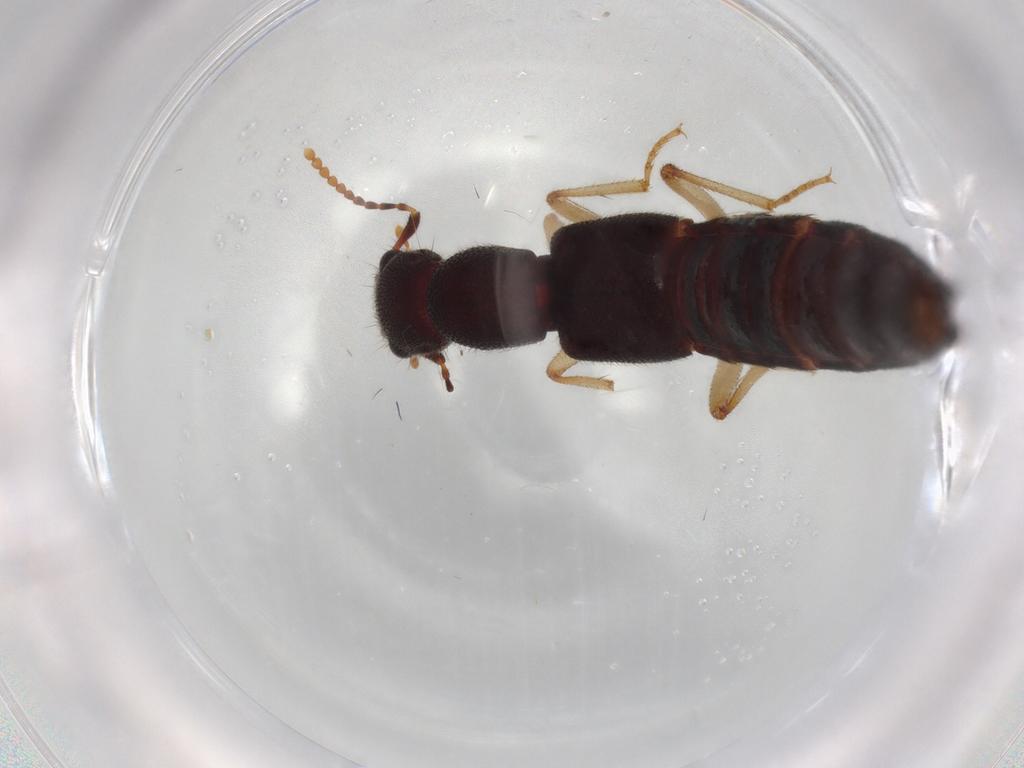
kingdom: Animalia
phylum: Arthropoda
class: Insecta
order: Coleoptera
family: Staphylinidae
